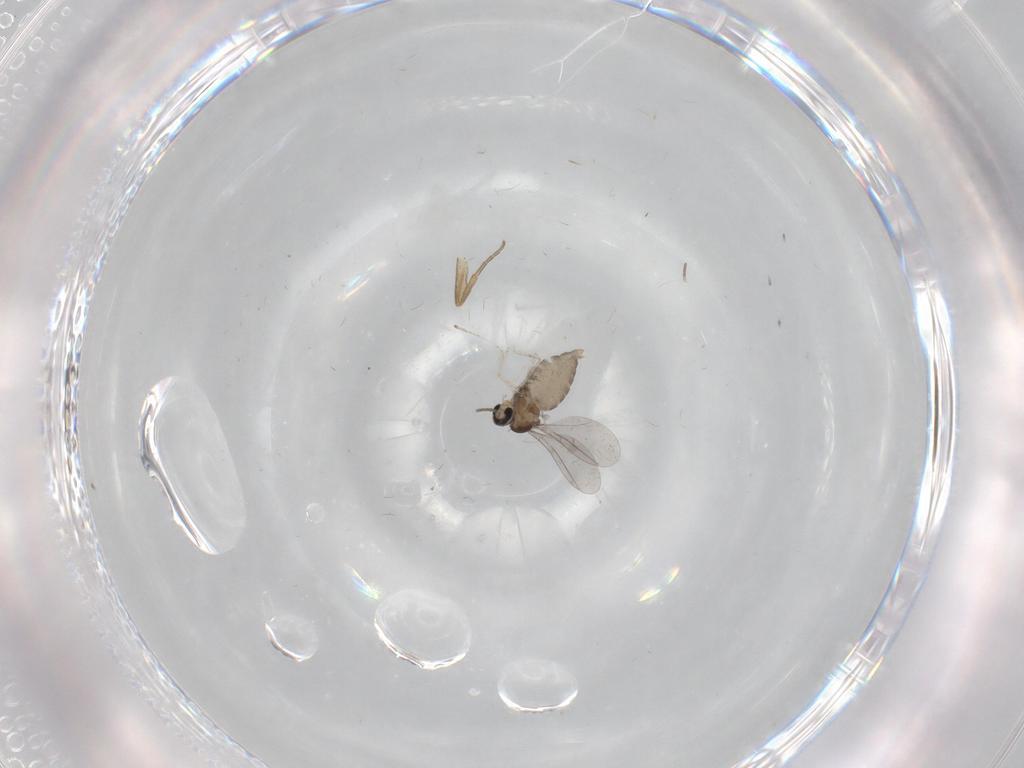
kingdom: Animalia
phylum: Arthropoda
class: Insecta
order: Diptera
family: Cecidomyiidae
